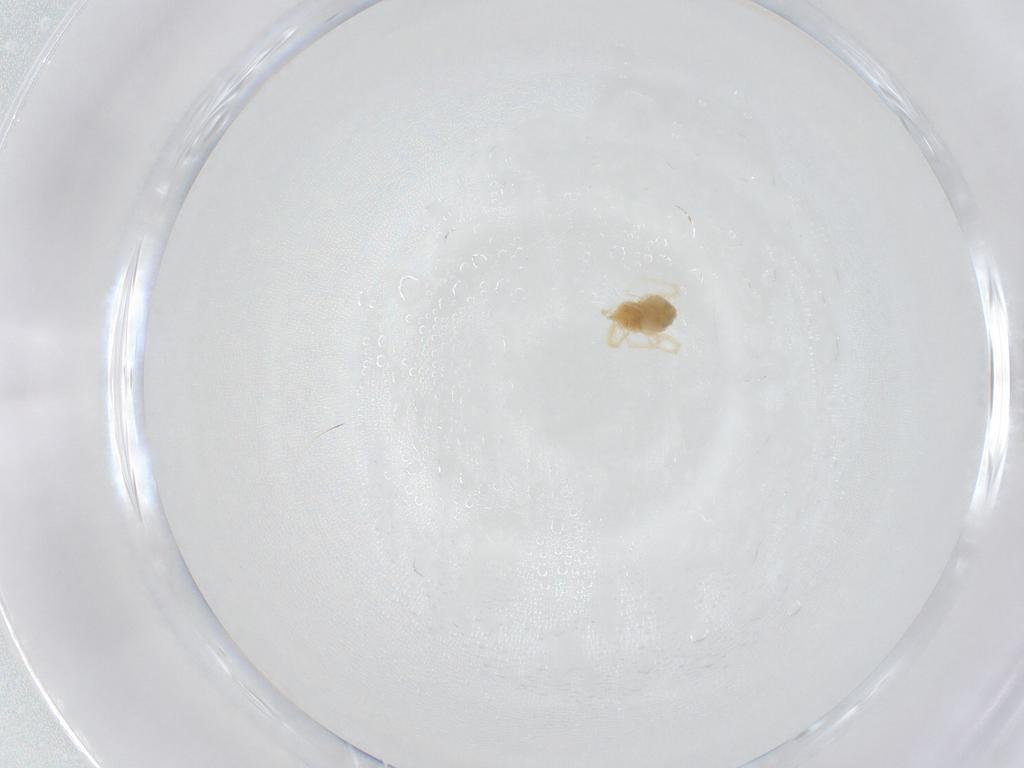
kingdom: Animalia
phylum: Arthropoda
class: Arachnida
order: Trombidiformes
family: Anystidae
